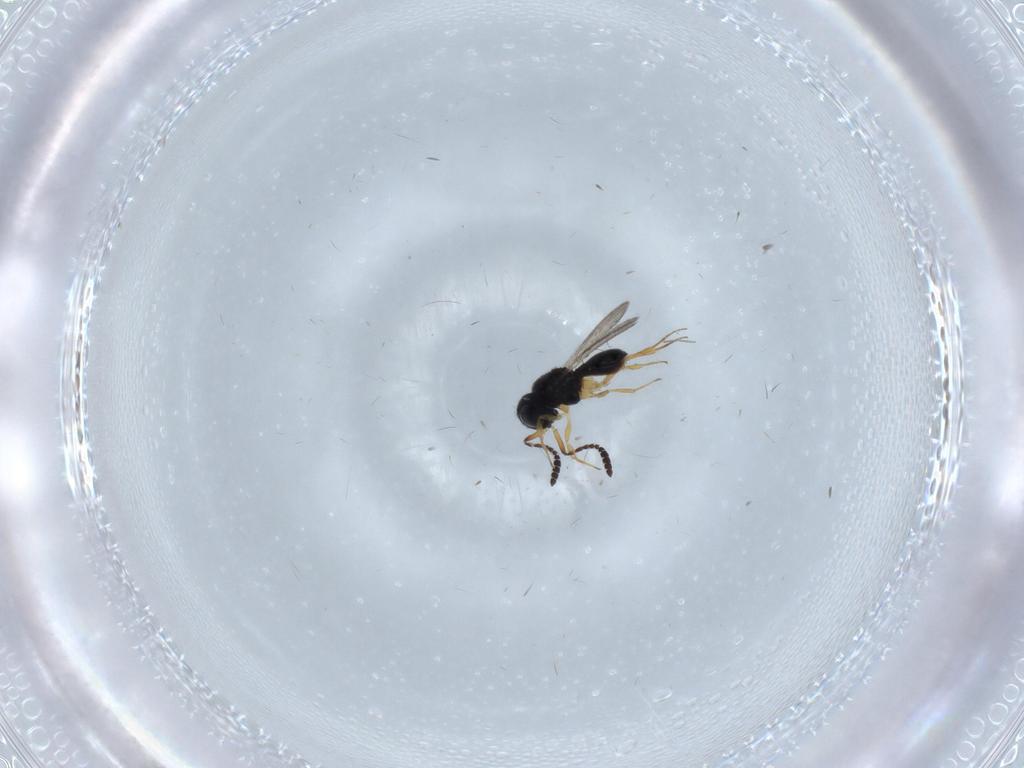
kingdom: Animalia
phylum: Arthropoda
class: Insecta
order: Hymenoptera
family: Scelionidae
